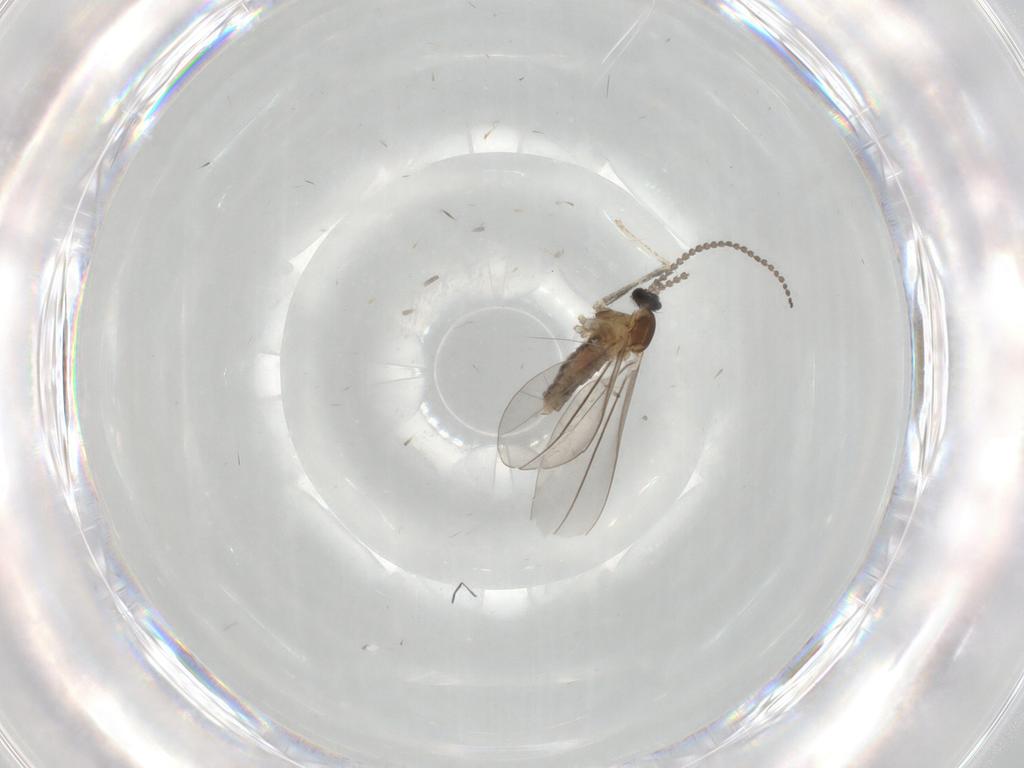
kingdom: Animalia
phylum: Arthropoda
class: Insecta
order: Diptera
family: Cecidomyiidae
